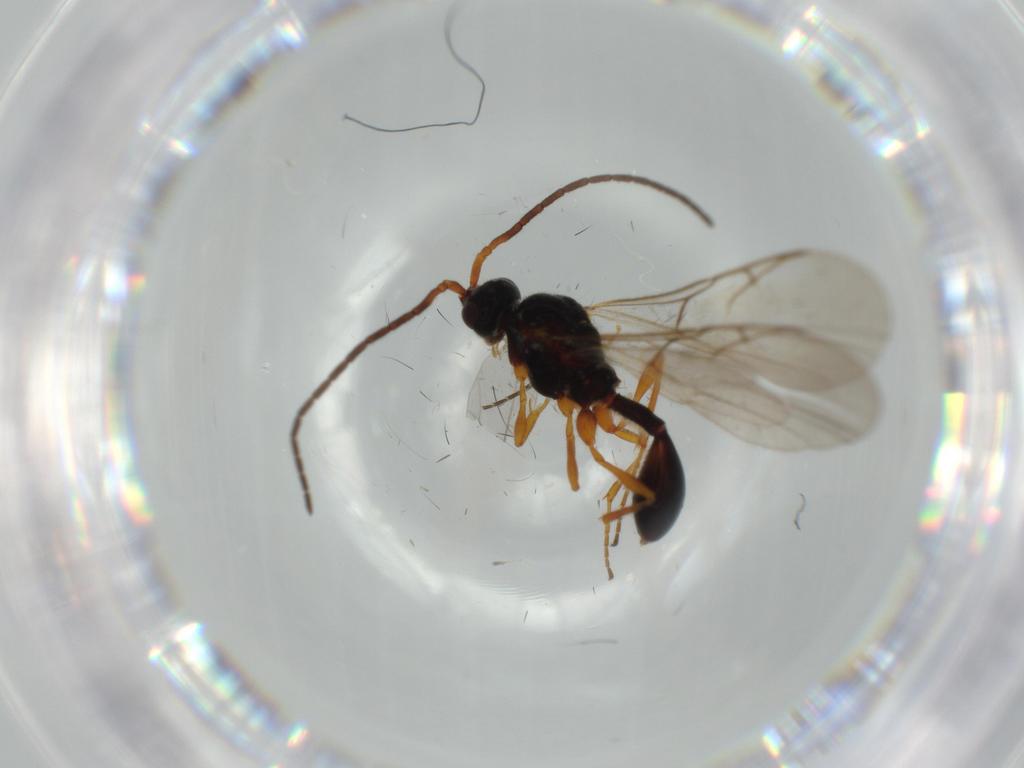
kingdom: Animalia
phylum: Arthropoda
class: Insecta
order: Hymenoptera
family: Diapriidae
